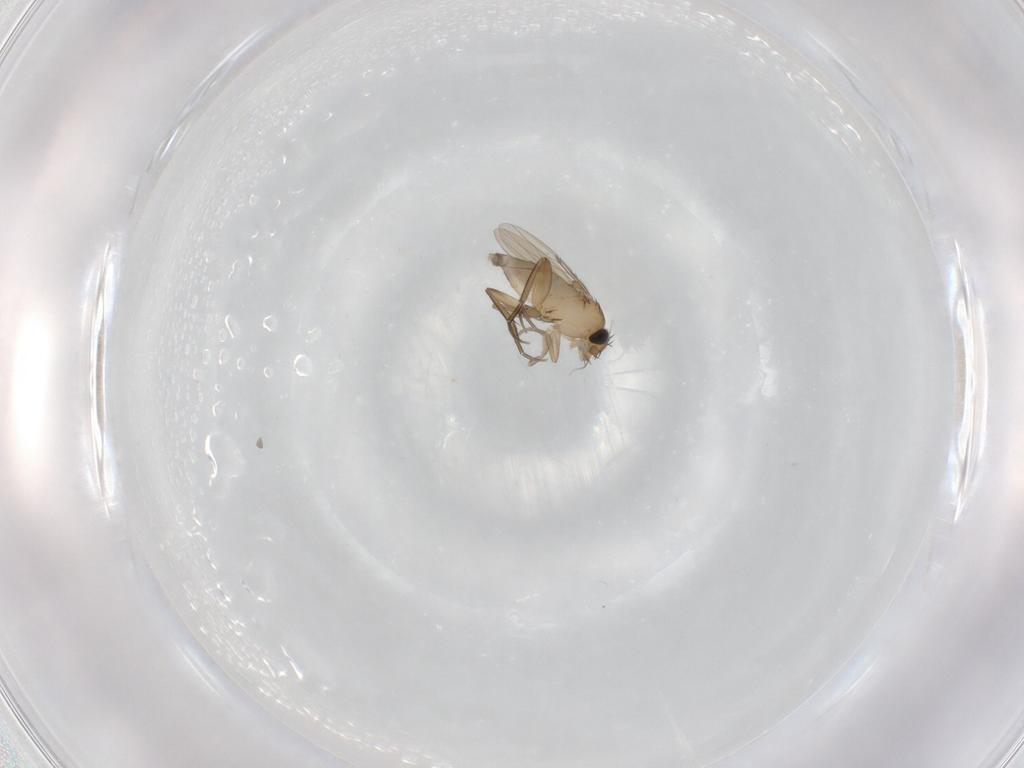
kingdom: Animalia
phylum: Arthropoda
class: Insecta
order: Diptera
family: Phoridae
